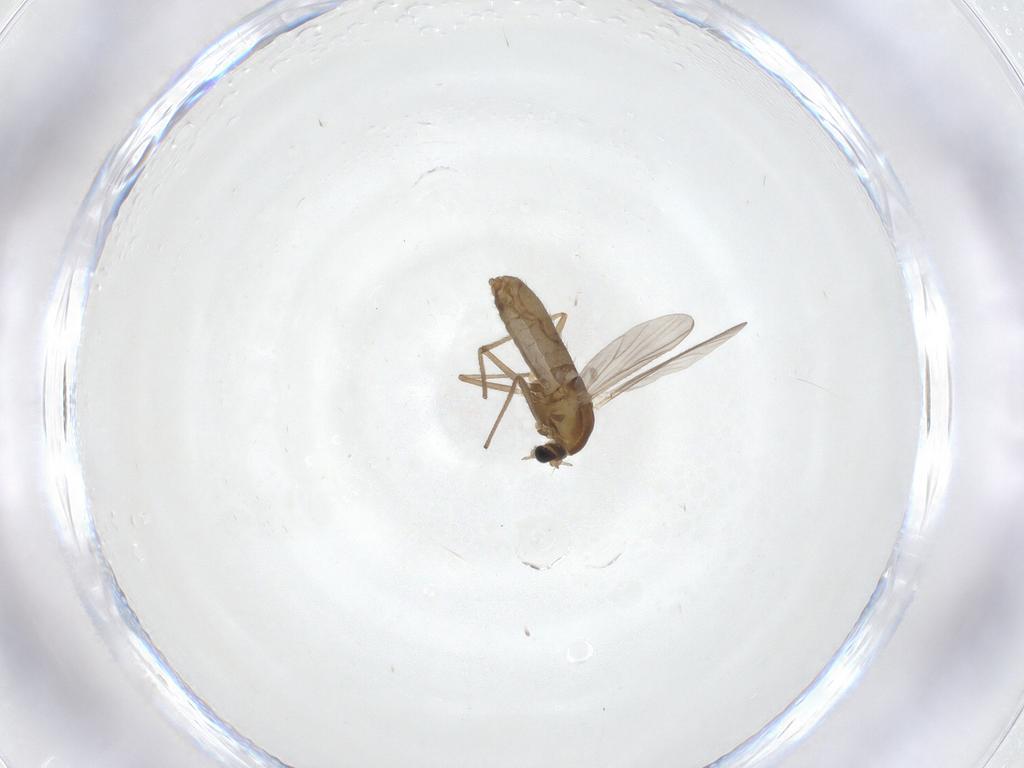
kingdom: Animalia
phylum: Arthropoda
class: Insecta
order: Diptera
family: Chironomidae
